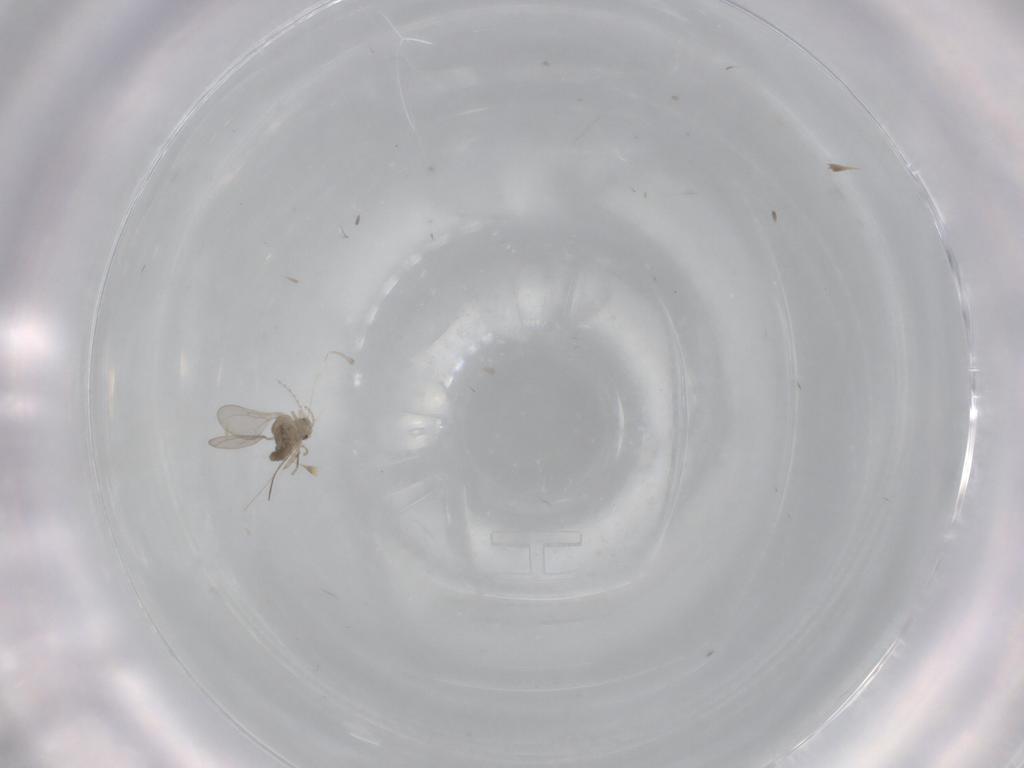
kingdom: Animalia
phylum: Arthropoda
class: Insecta
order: Diptera
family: Cecidomyiidae
